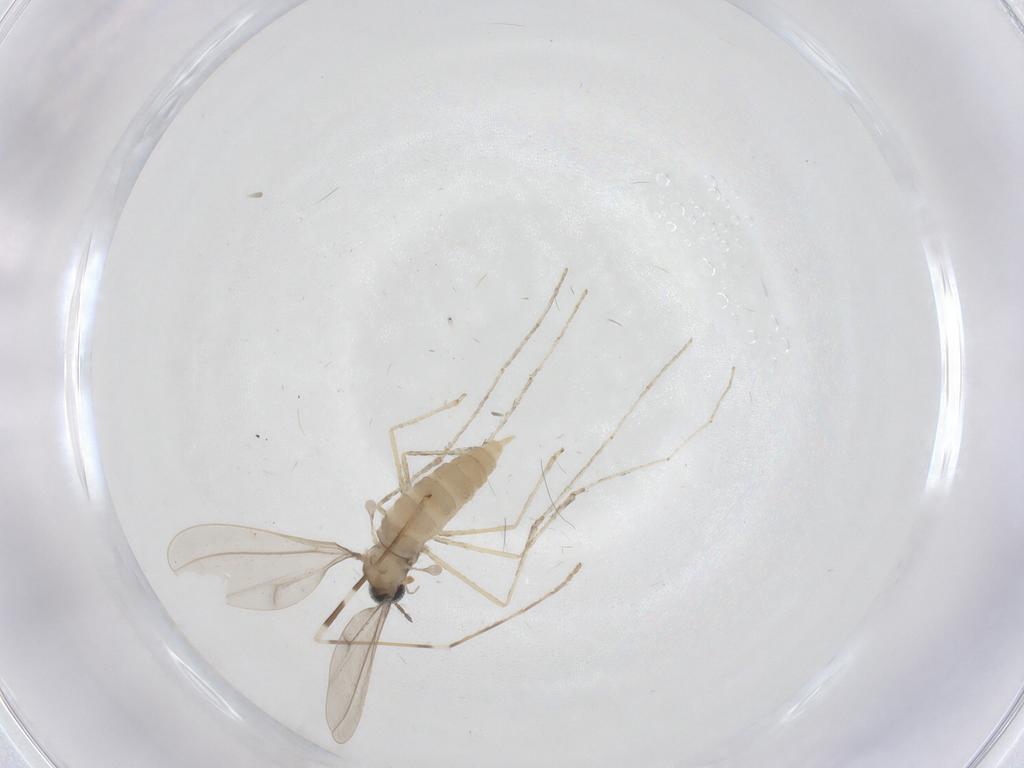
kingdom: Animalia
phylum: Arthropoda
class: Insecta
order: Diptera
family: Cecidomyiidae
